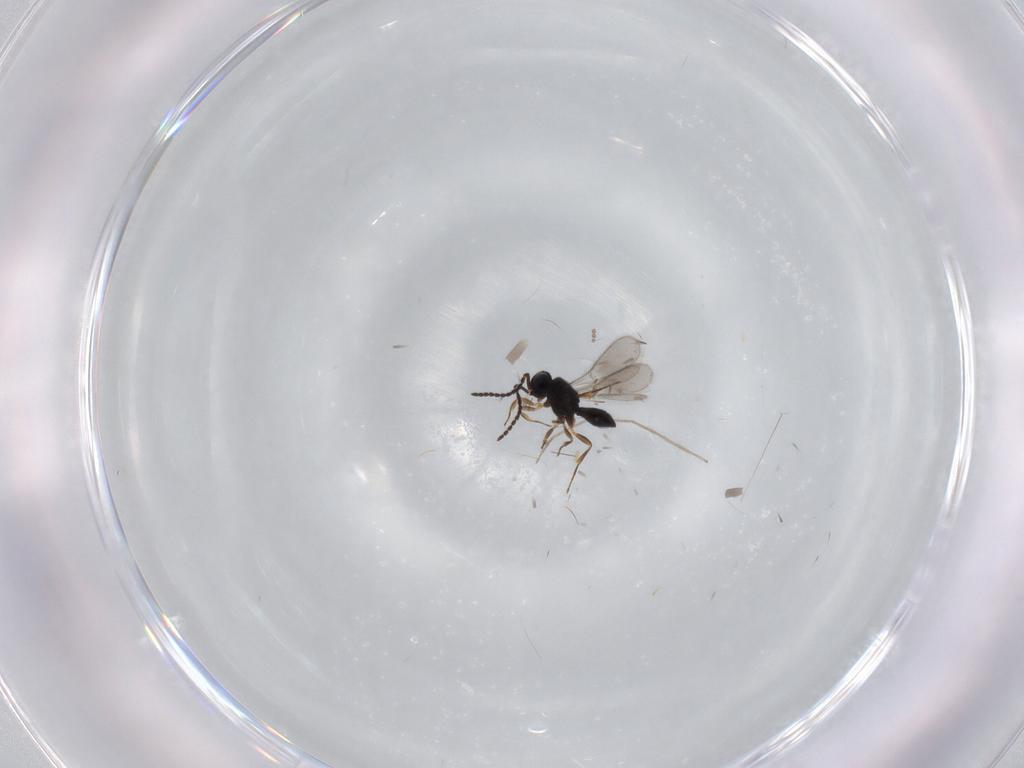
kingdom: Animalia
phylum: Arthropoda
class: Insecta
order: Hymenoptera
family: Scelionidae
